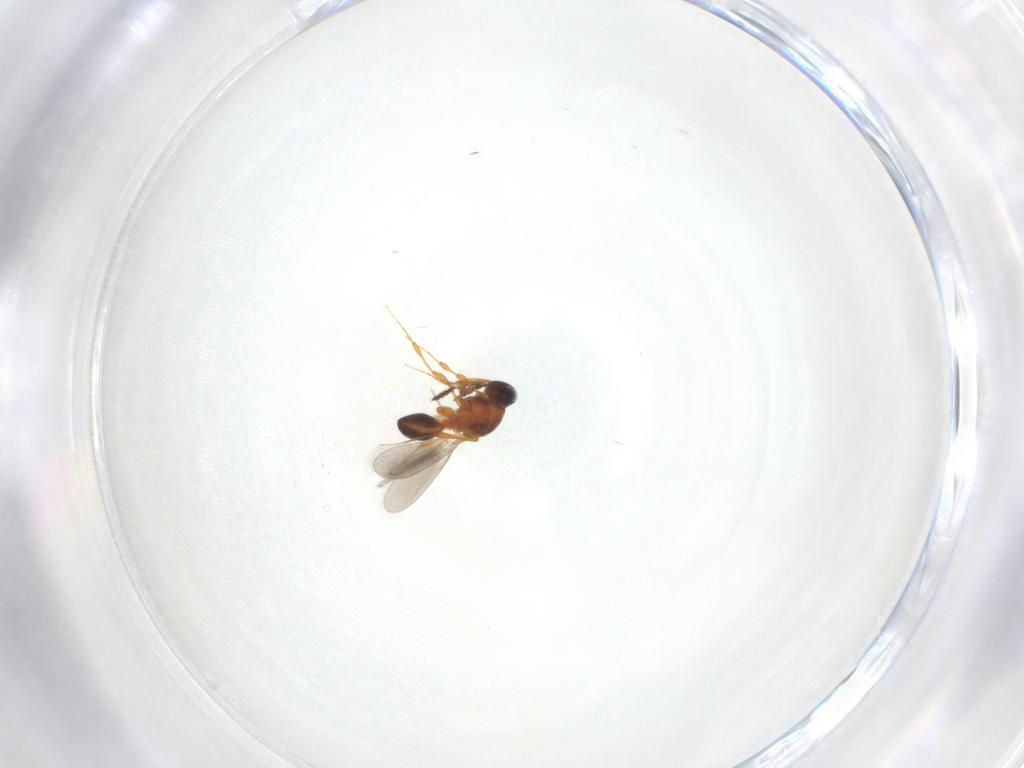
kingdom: Animalia
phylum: Arthropoda
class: Insecta
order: Hymenoptera
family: Platygastridae
